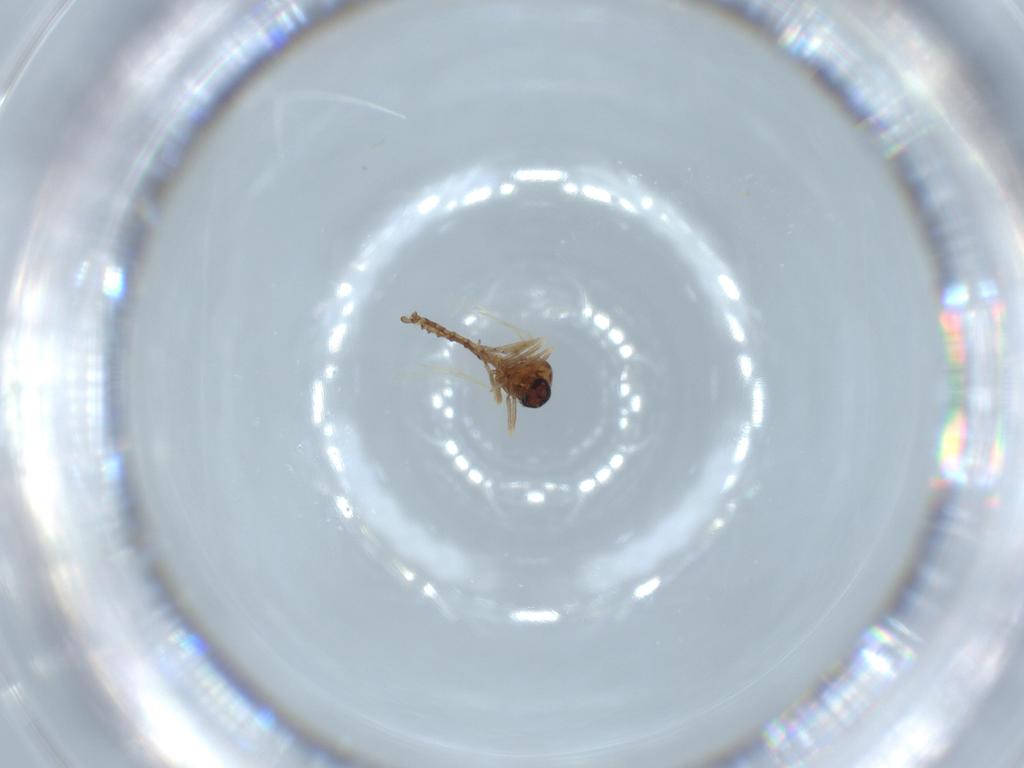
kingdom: Animalia
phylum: Arthropoda
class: Insecta
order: Diptera
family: Ceratopogonidae
